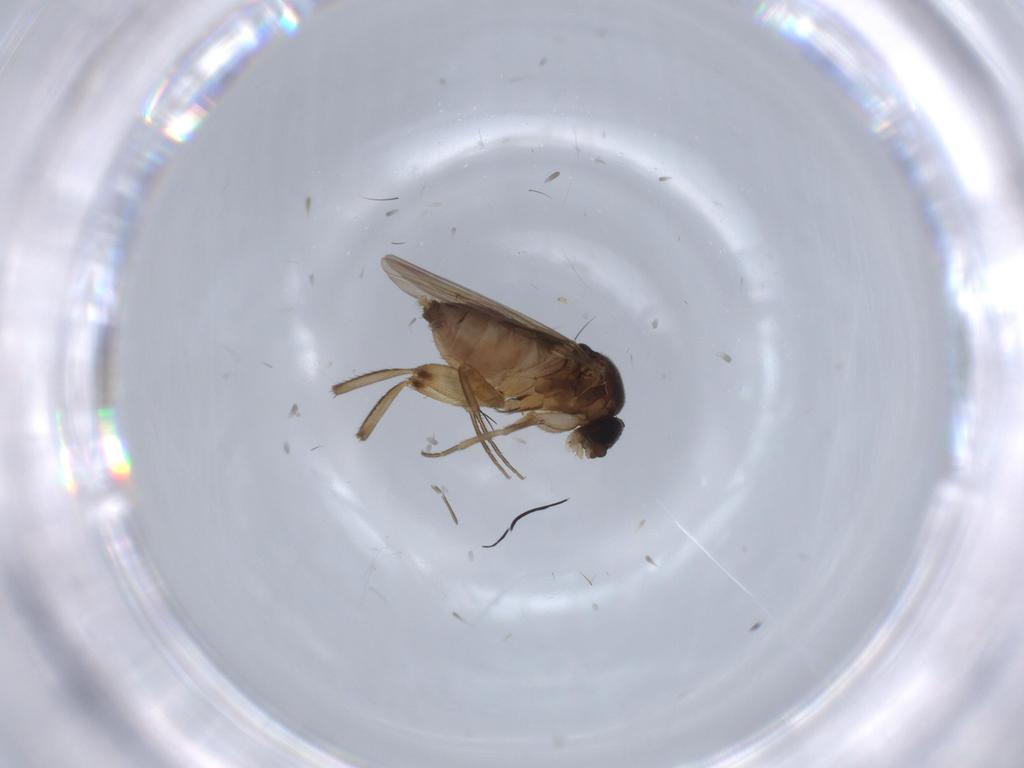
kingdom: Animalia
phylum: Arthropoda
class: Insecta
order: Diptera
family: Phoridae
